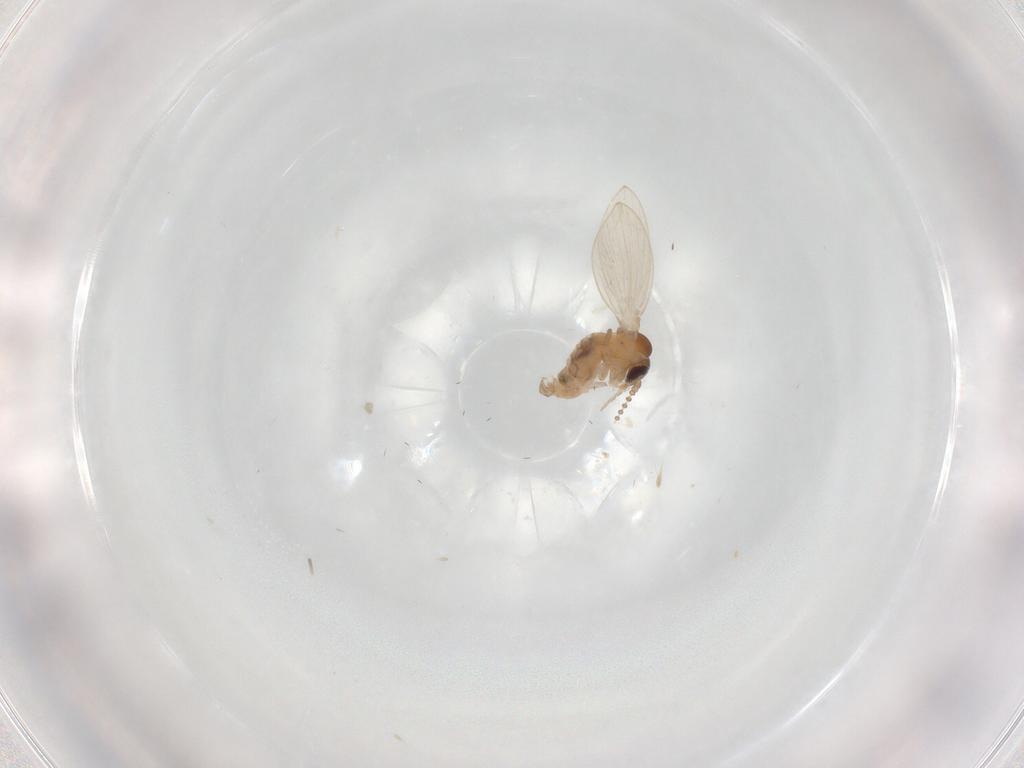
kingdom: Animalia
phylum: Arthropoda
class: Insecta
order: Diptera
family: Psychodidae
